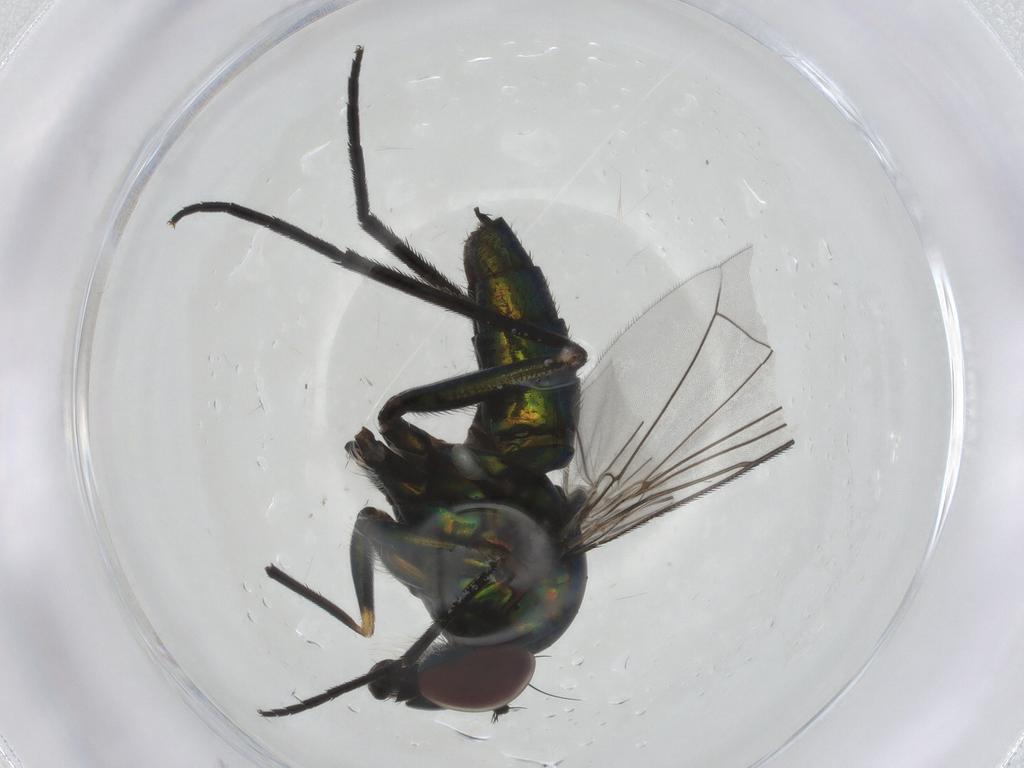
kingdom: Animalia
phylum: Arthropoda
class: Insecta
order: Diptera
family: Dolichopodidae
